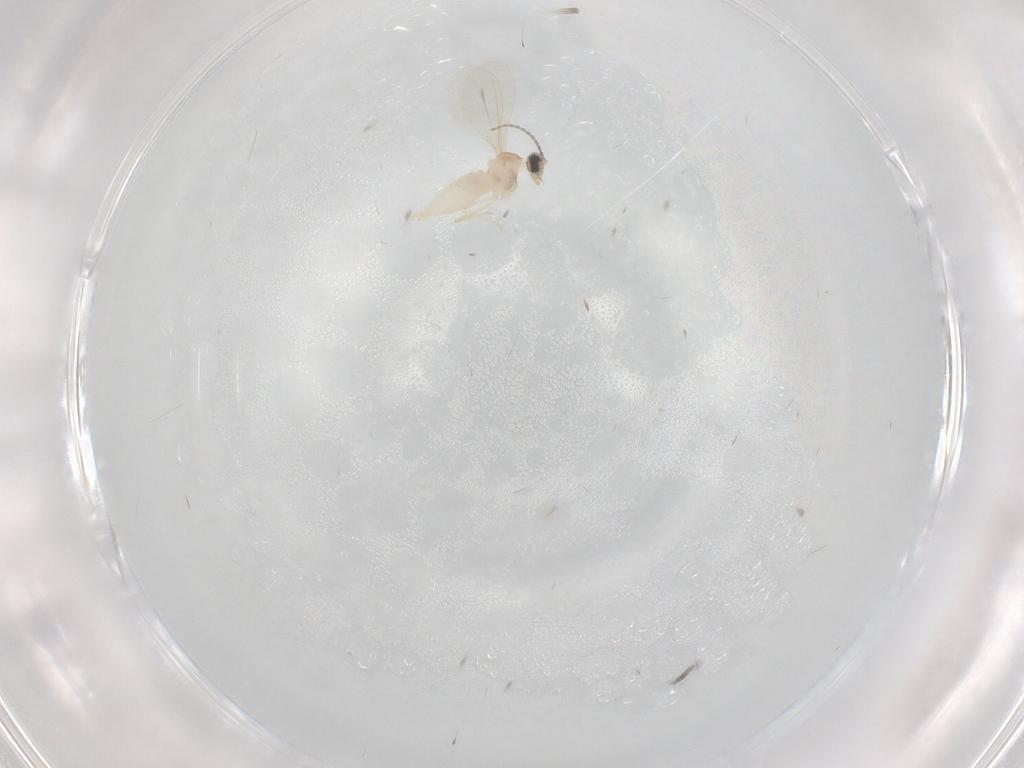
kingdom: Animalia
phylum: Arthropoda
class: Insecta
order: Diptera
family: Cecidomyiidae
